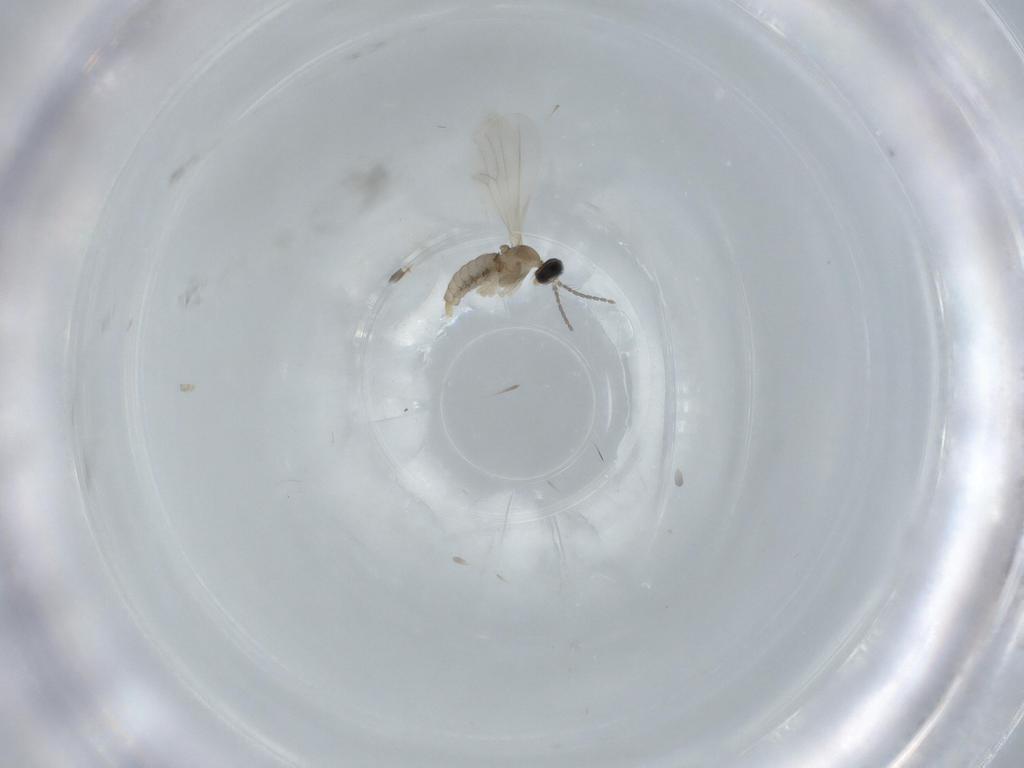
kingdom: Animalia
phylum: Arthropoda
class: Insecta
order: Diptera
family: Cecidomyiidae
